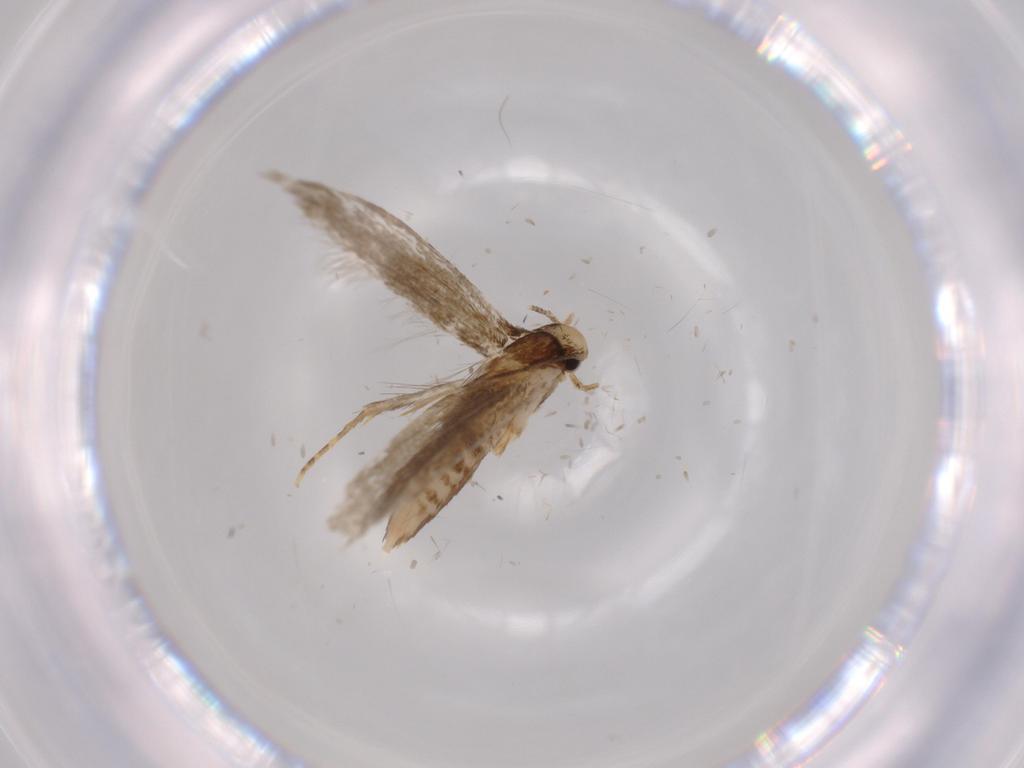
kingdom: Animalia
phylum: Arthropoda
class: Insecta
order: Lepidoptera
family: Tineidae
